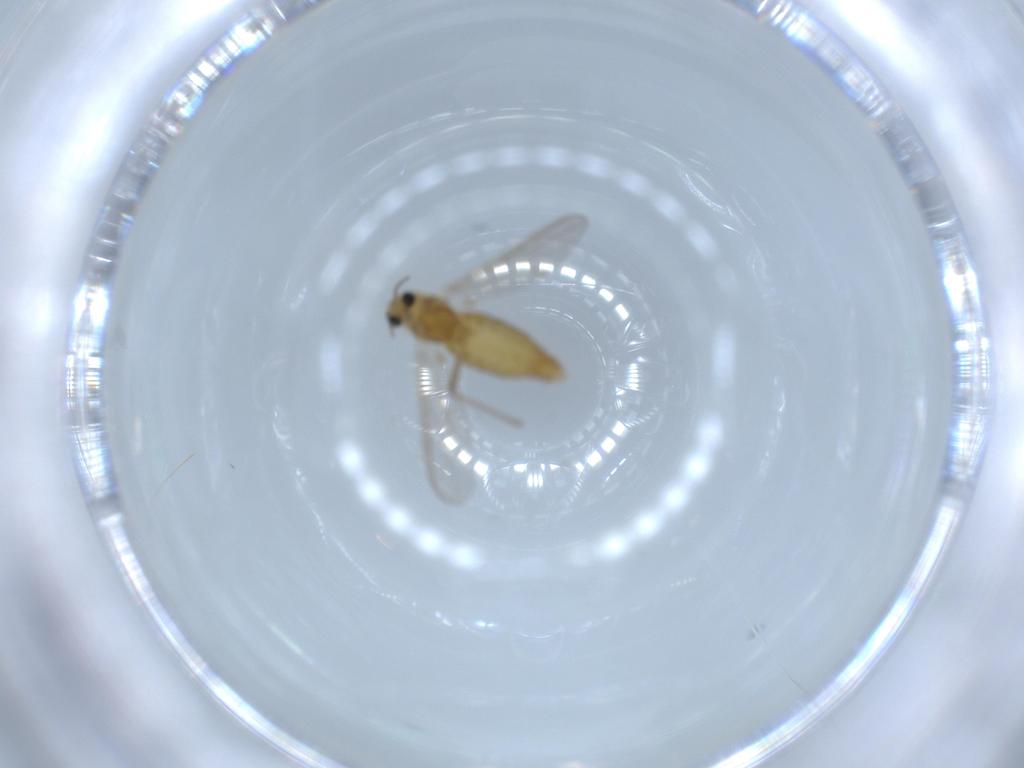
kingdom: Animalia
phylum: Arthropoda
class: Insecta
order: Diptera
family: Chironomidae
